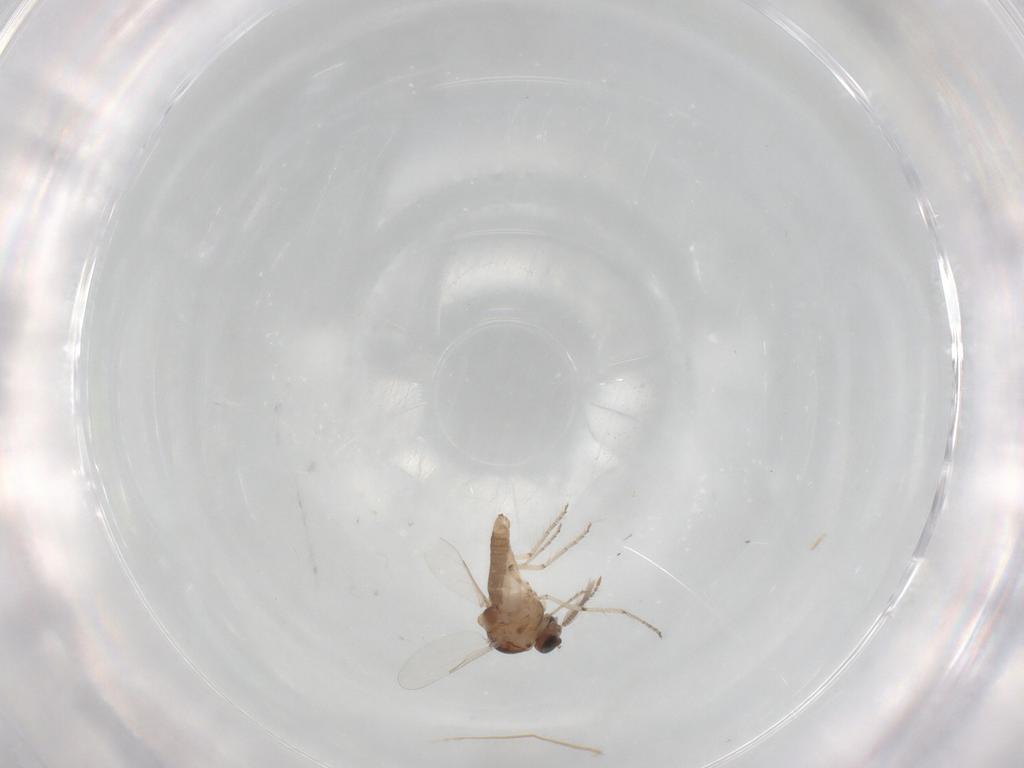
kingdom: Animalia
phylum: Arthropoda
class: Insecta
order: Diptera
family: Ceratopogonidae
